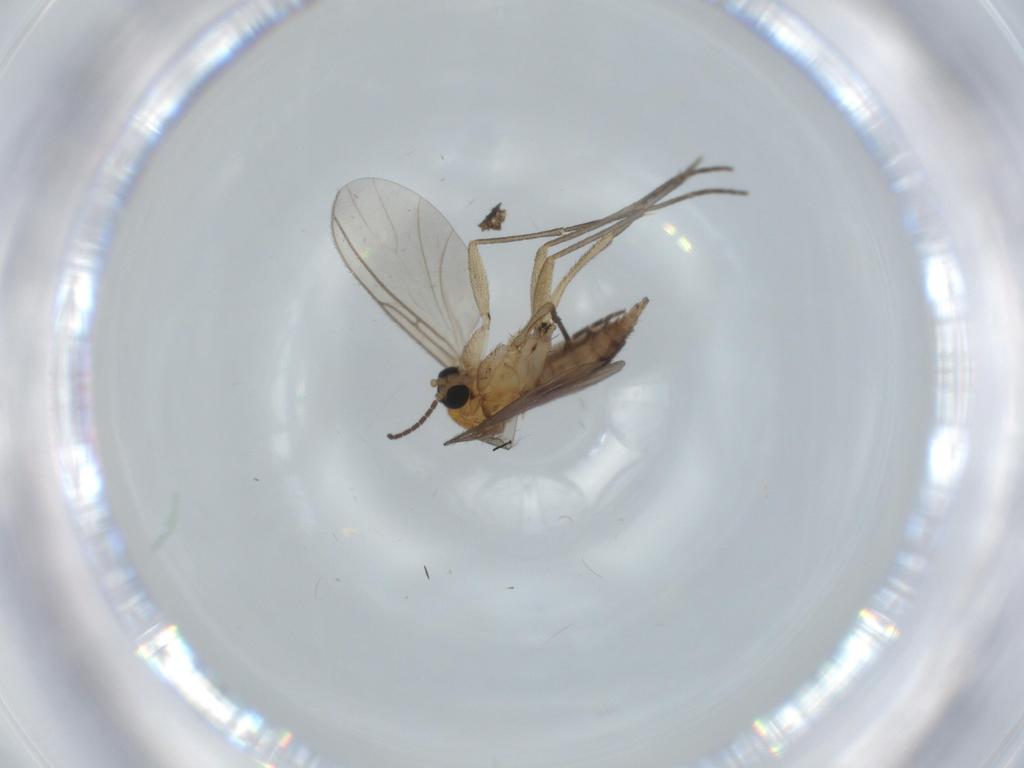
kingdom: Animalia
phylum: Arthropoda
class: Insecta
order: Diptera
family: Sciaridae
